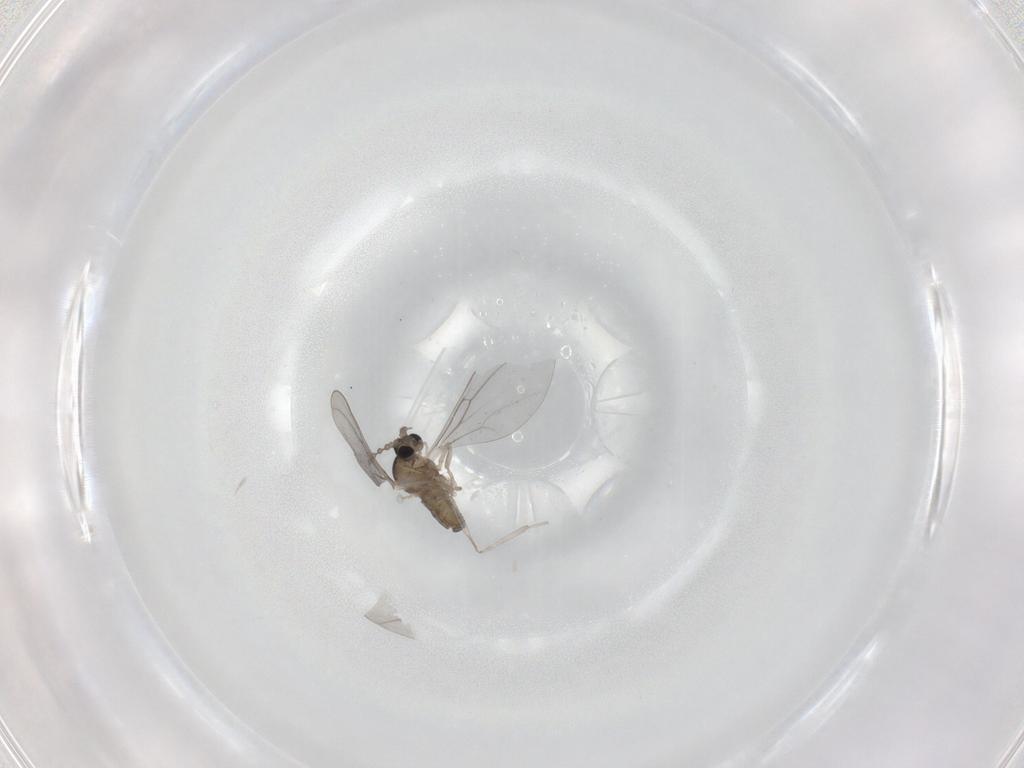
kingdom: Animalia
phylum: Arthropoda
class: Insecta
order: Diptera
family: Cecidomyiidae
